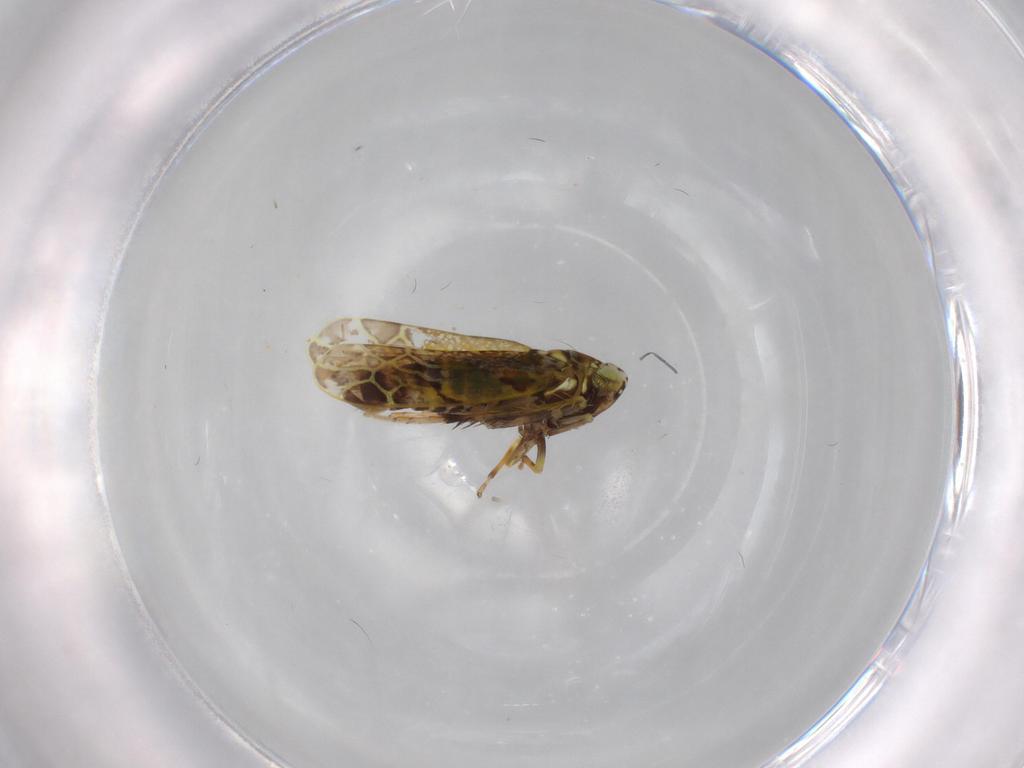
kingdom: Animalia
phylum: Arthropoda
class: Insecta
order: Hemiptera
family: Cicadellidae
